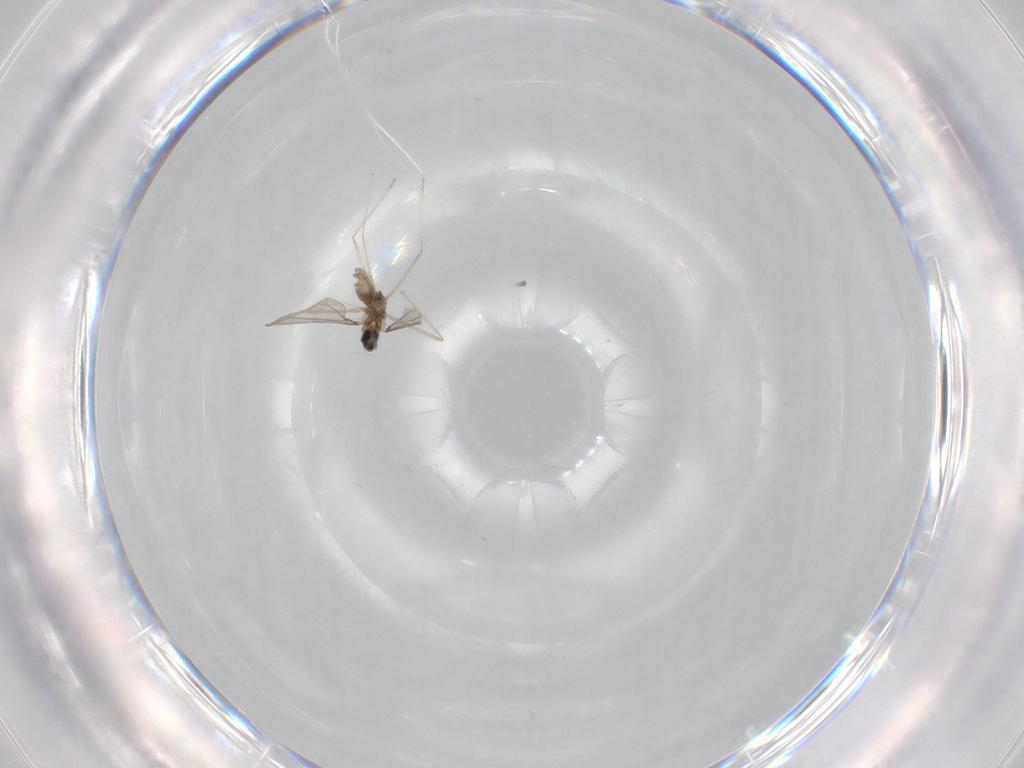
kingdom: Animalia
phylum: Arthropoda
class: Insecta
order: Diptera
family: Cecidomyiidae
